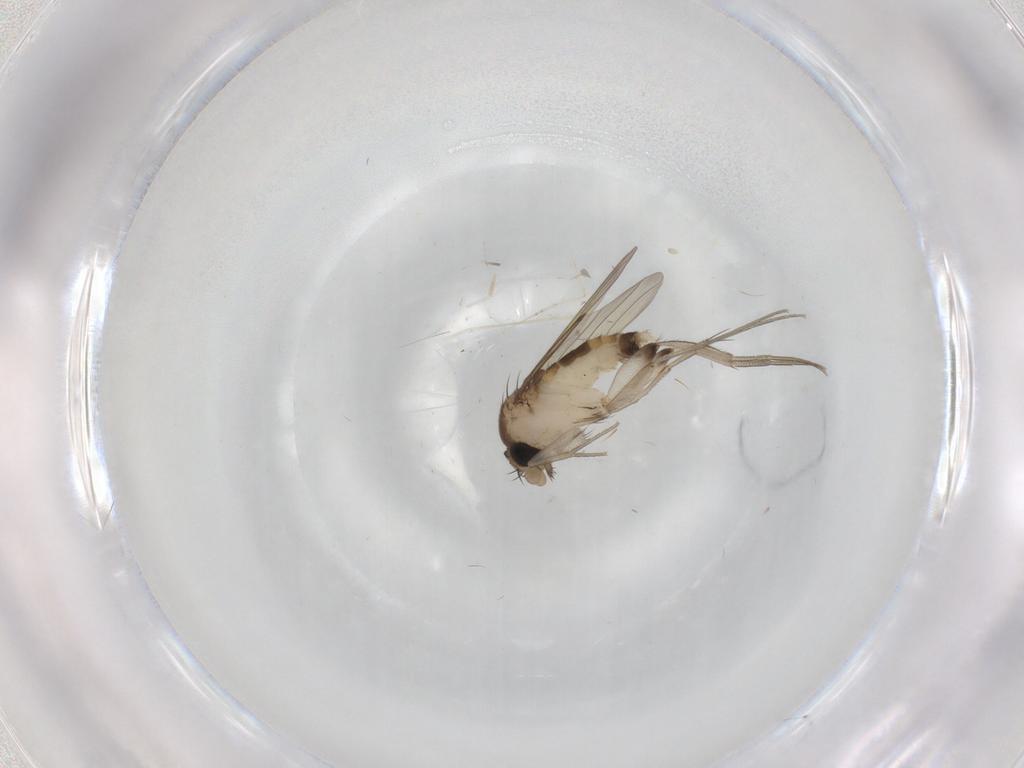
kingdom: Animalia
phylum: Arthropoda
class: Insecta
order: Diptera
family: Phoridae
